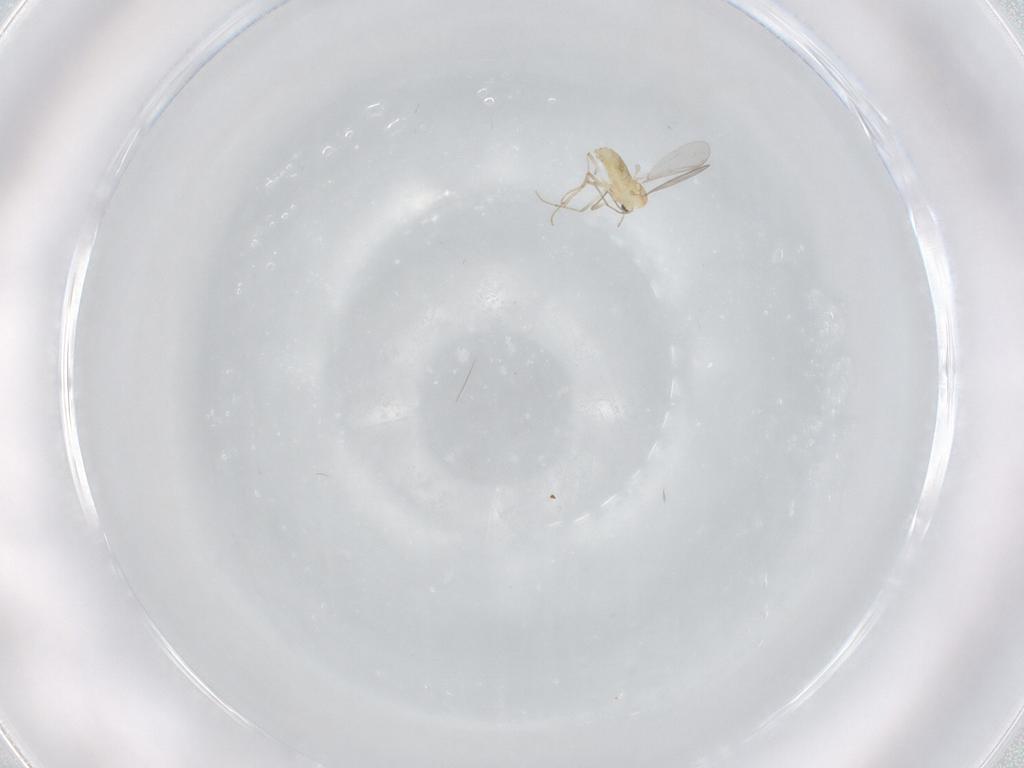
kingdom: Animalia
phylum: Arthropoda
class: Insecta
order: Diptera
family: Chironomidae
